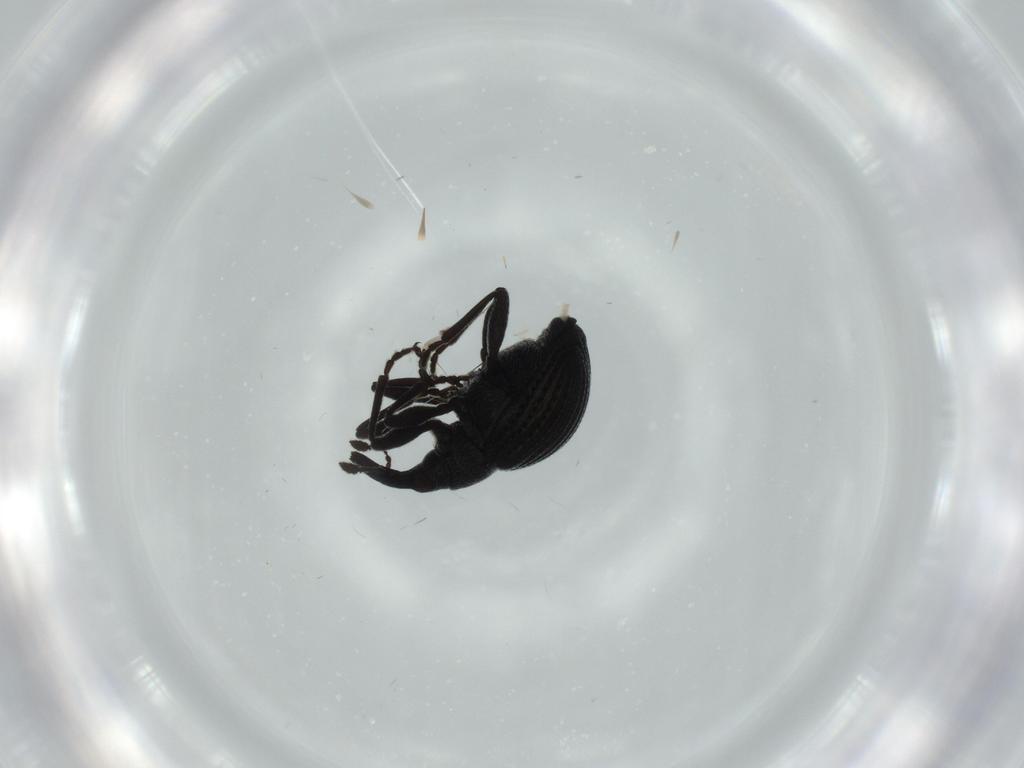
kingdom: Animalia
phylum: Arthropoda
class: Insecta
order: Coleoptera
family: Brentidae
